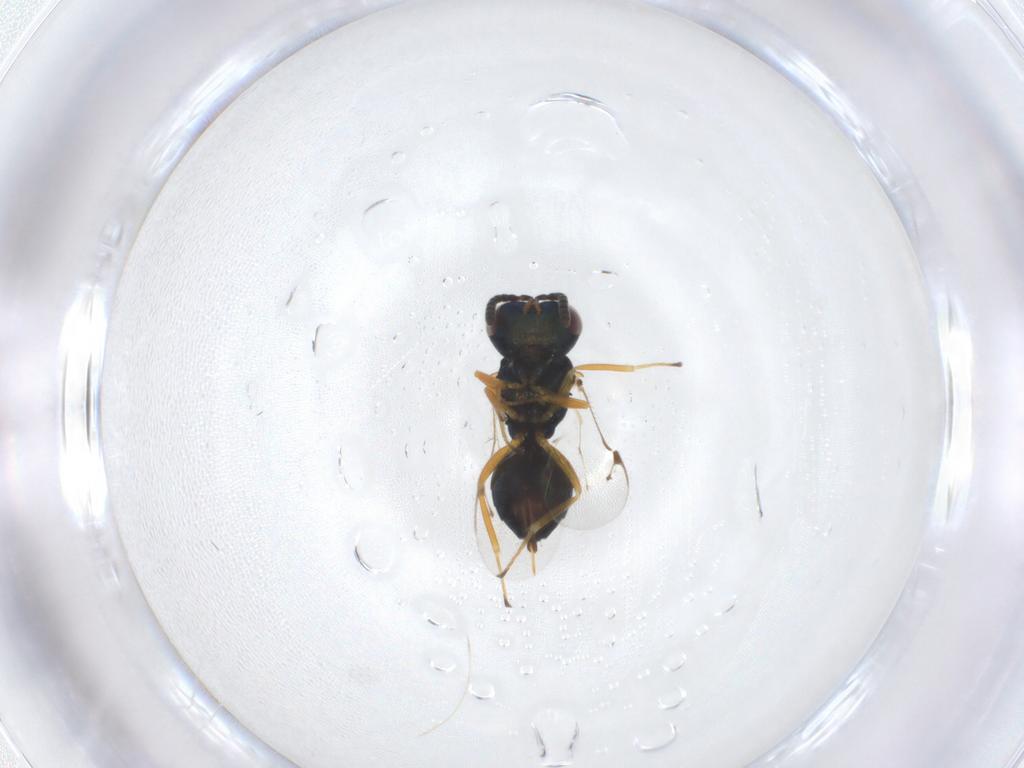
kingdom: Animalia
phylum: Arthropoda
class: Insecta
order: Hymenoptera
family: Pteromalidae
